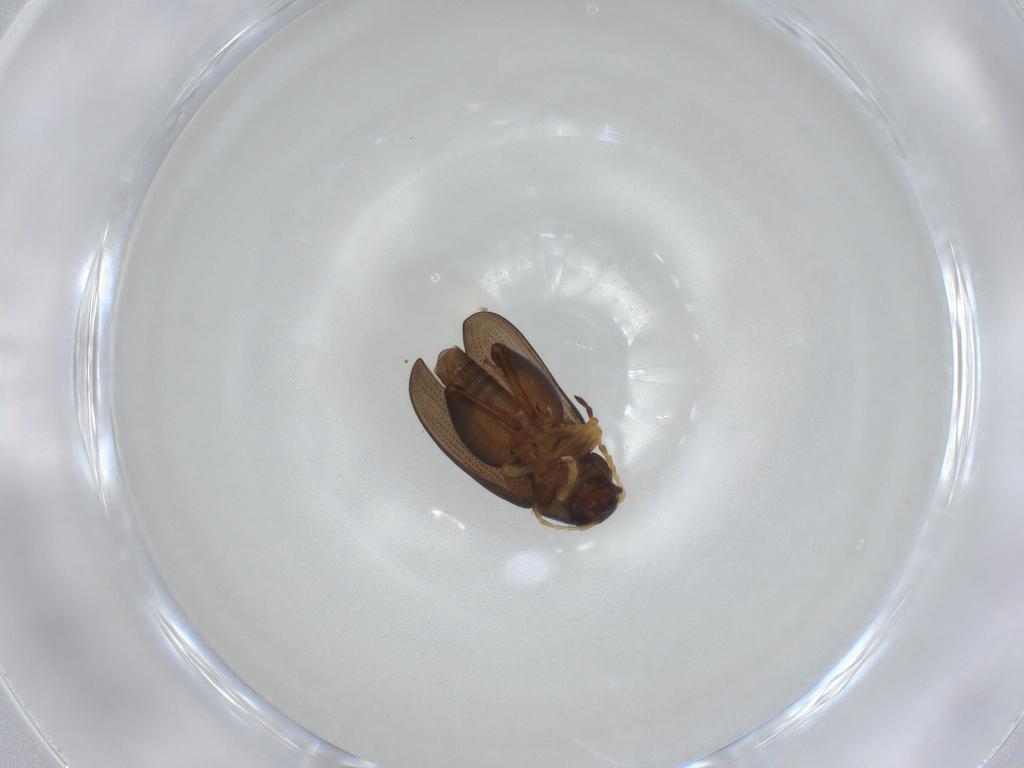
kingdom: Animalia
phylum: Arthropoda
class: Insecta
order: Coleoptera
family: Chrysomelidae
